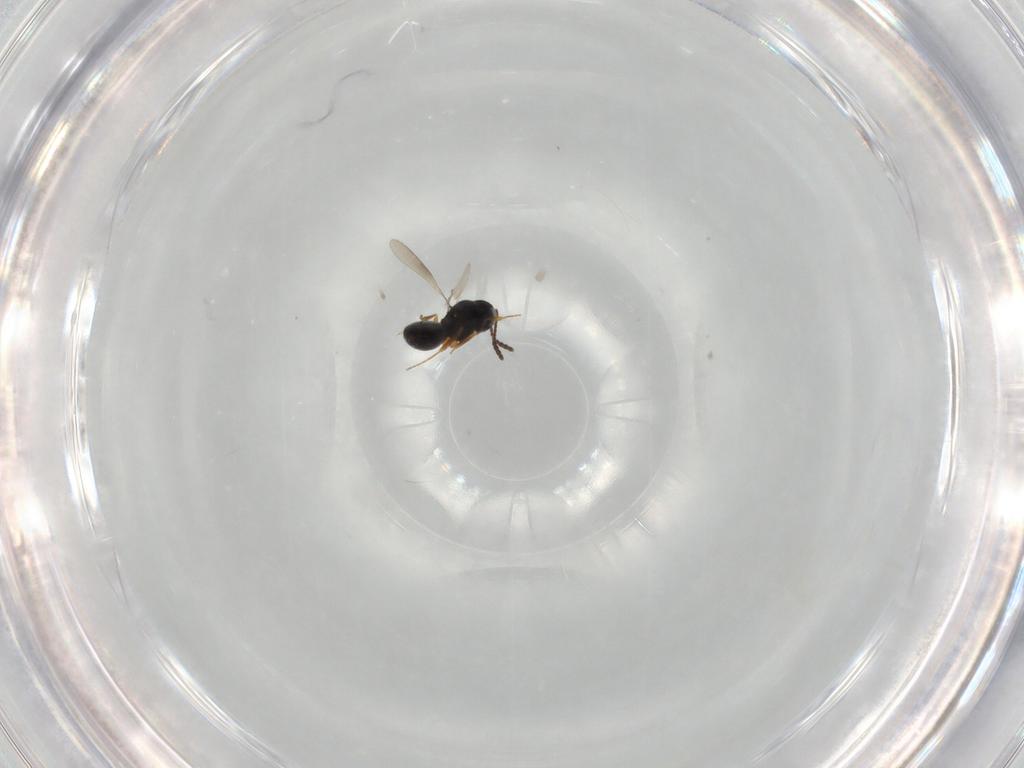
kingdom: Animalia
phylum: Arthropoda
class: Insecta
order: Hymenoptera
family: Scelionidae
